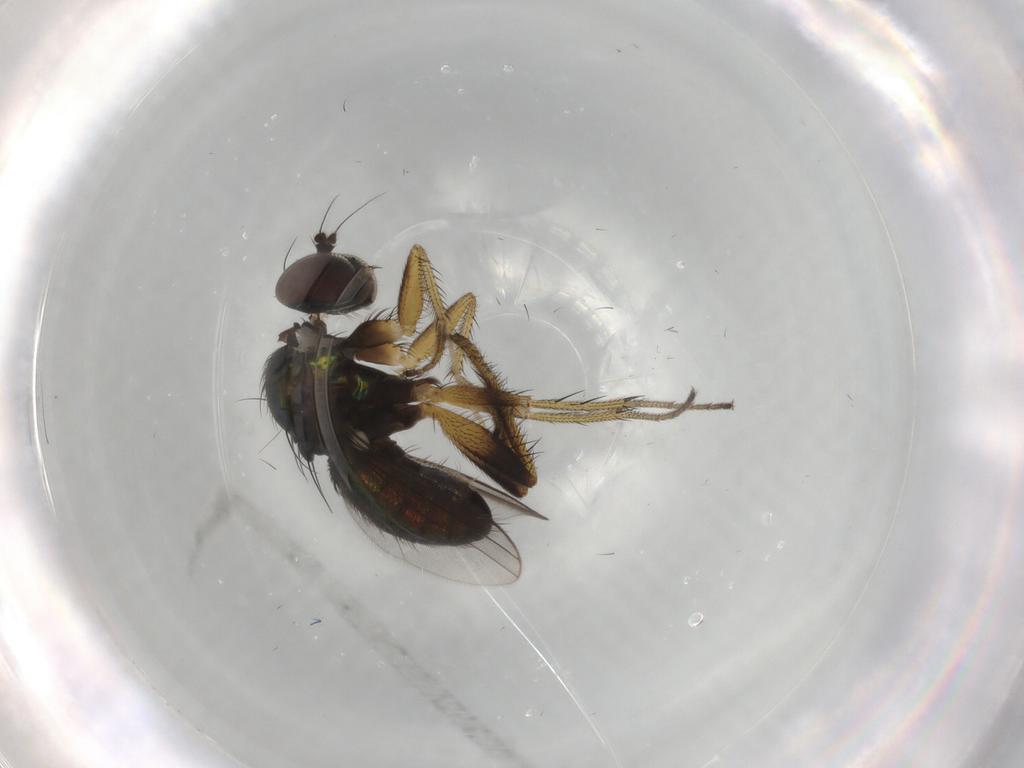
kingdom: Animalia
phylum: Arthropoda
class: Insecta
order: Diptera
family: Dolichopodidae
